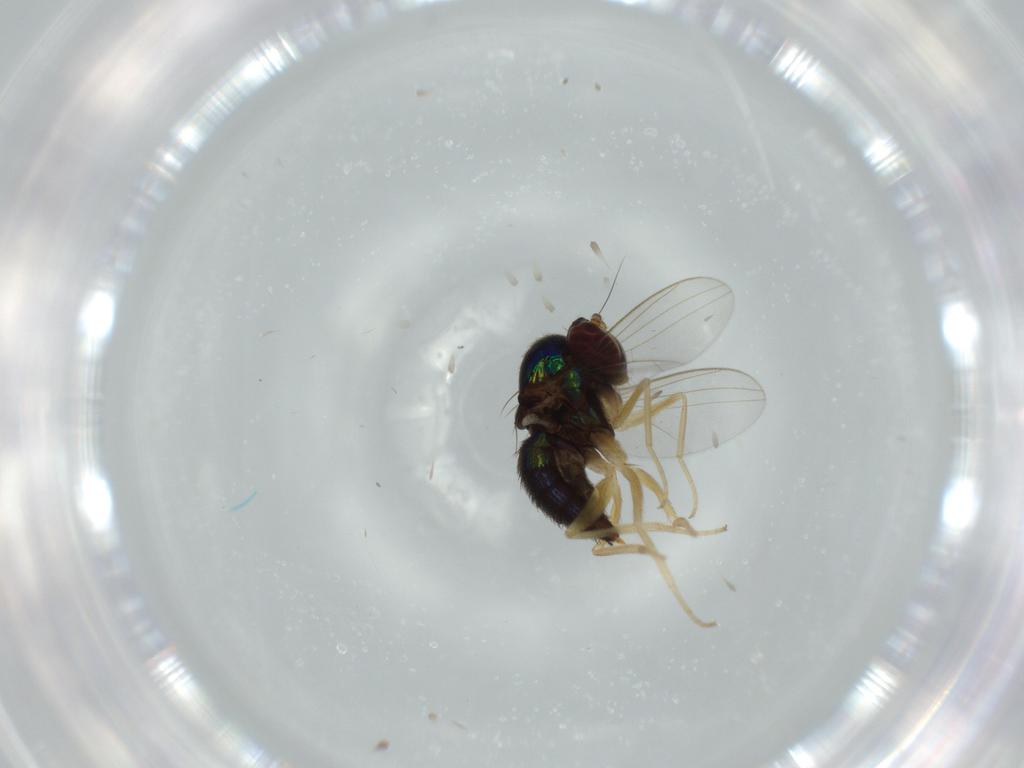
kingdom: Animalia
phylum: Arthropoda
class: Insecta
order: Diptera
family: Dolichopodidae
